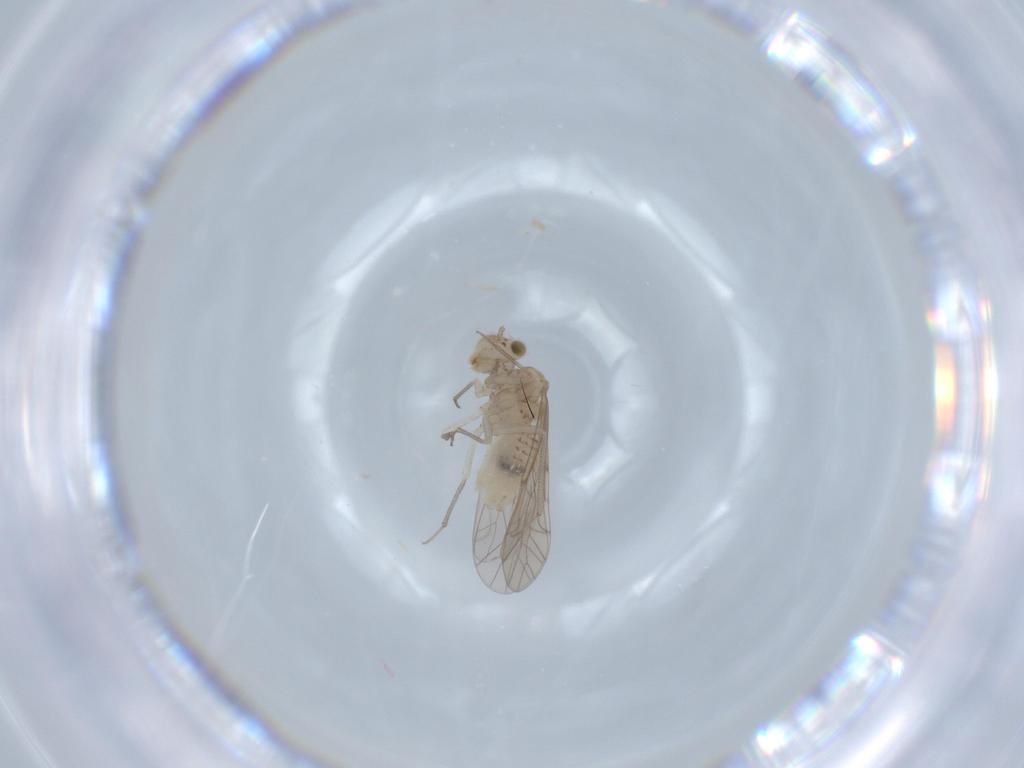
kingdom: Animalia
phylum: Arthropoda
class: Insecta
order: Psocodea
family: Lachesillidae
